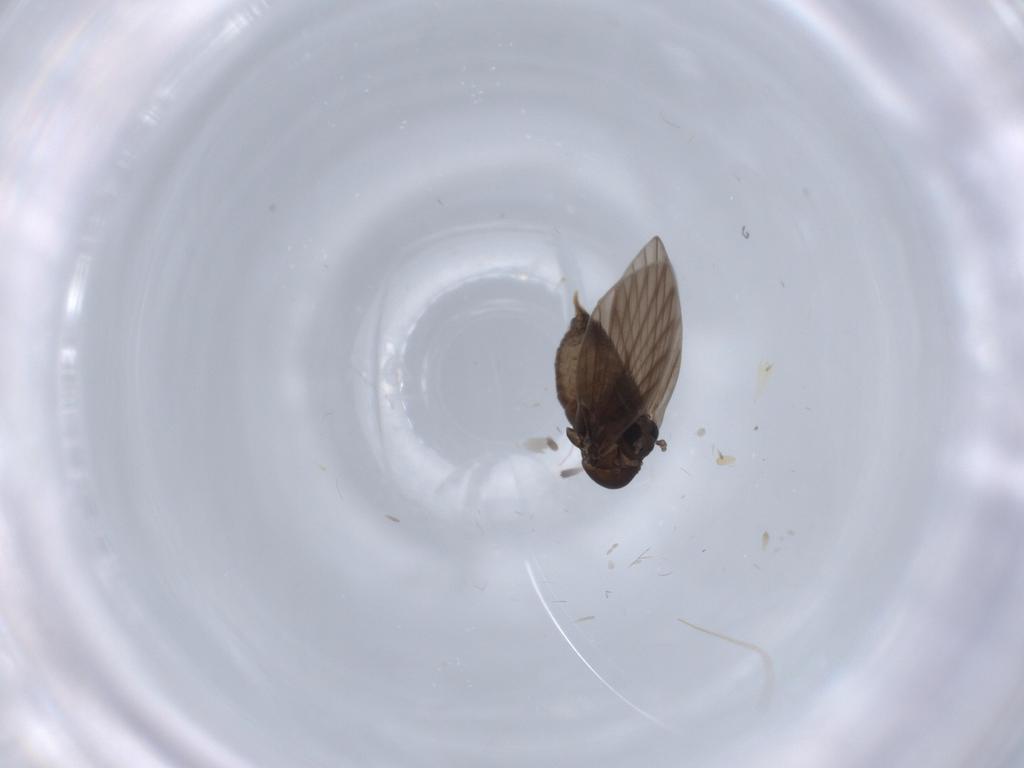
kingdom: Animalia
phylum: Arthropoda
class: Insecta
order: Diptera
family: Psychodidae
